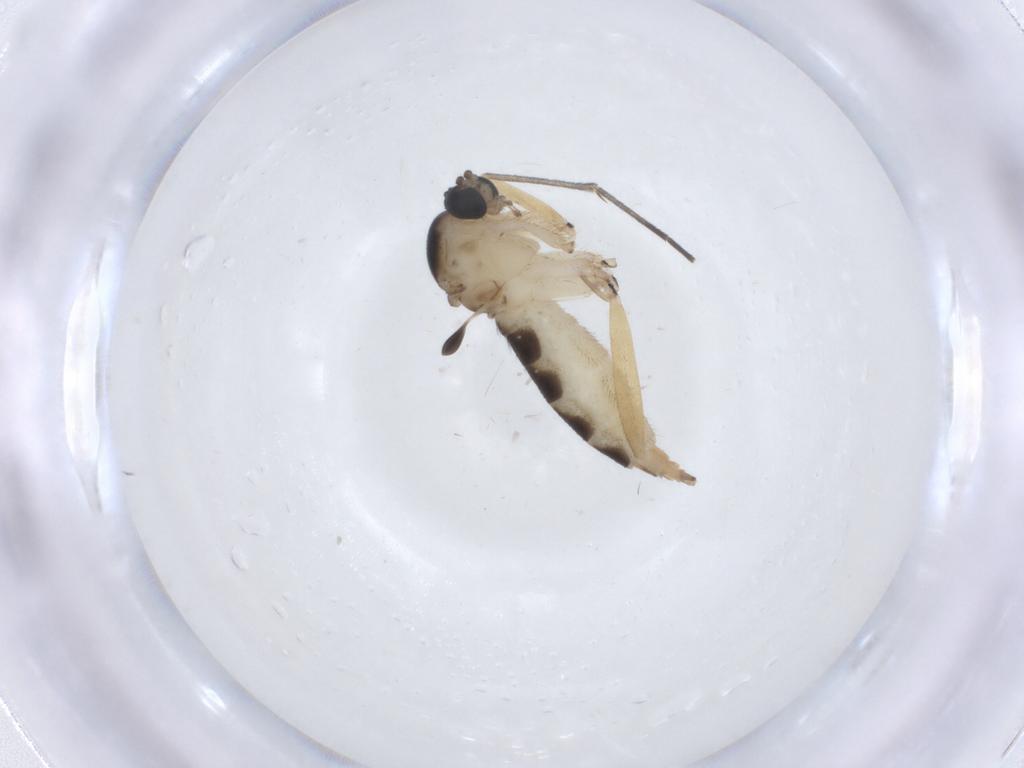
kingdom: Animalia
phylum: Arthropoda
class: Insecta
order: Diptera
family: Sciaridae
